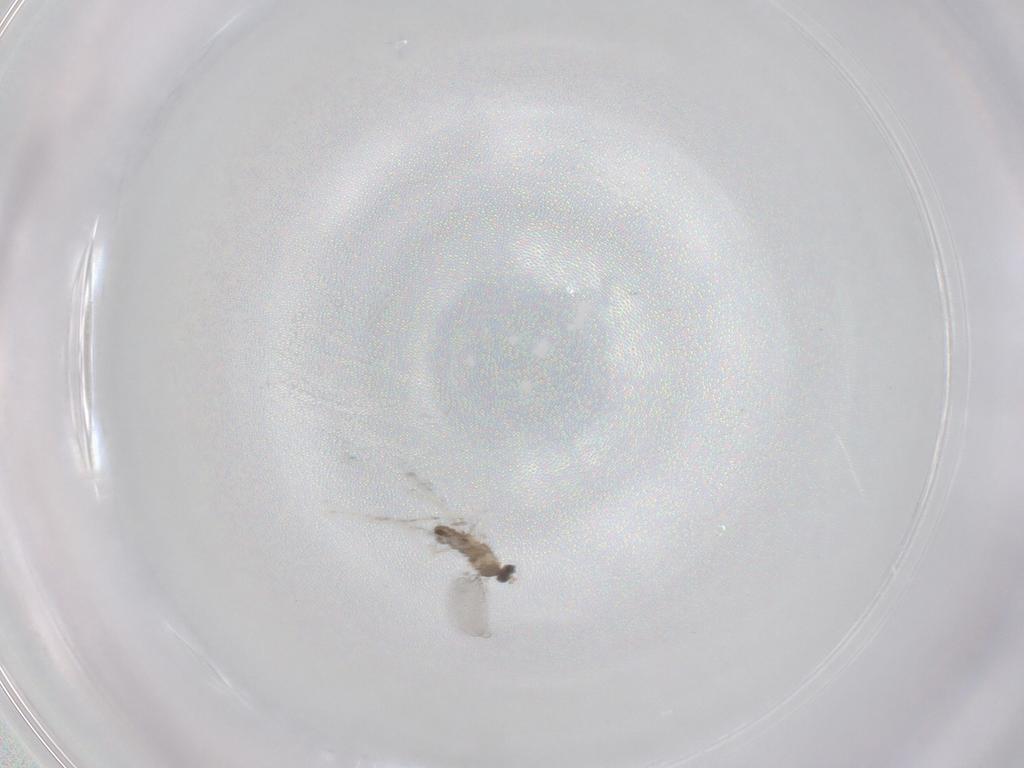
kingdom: Animalia
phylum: Arthropoda
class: Insecta
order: Diptera
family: Cecidomyiidae
